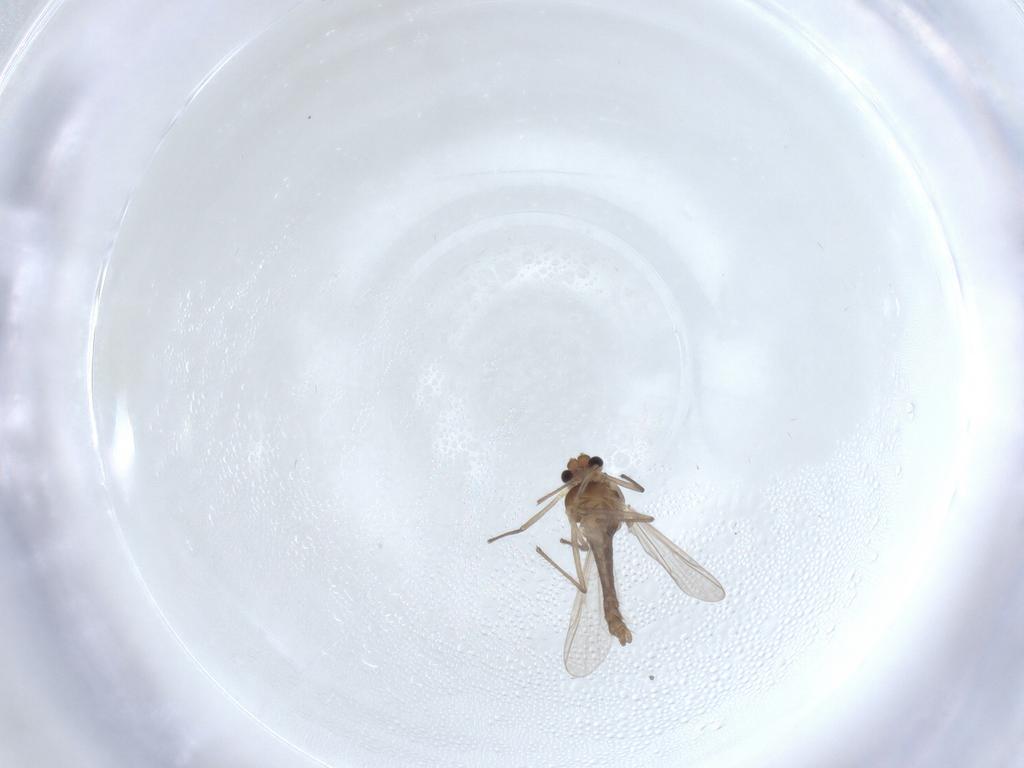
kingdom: Animalia
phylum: Arthropoda
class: Insecta
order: Diptera
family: Chironomidae
